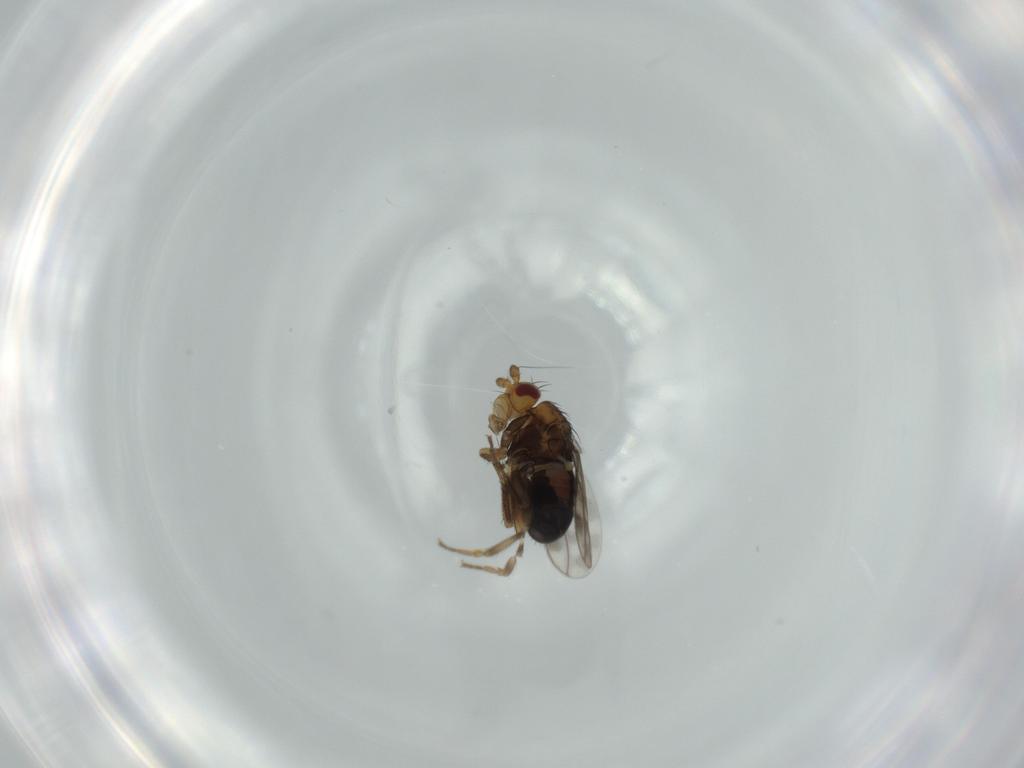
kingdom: Animalia
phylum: Arthropoda
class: Insecta
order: Diptera
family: Sphaeroceridae
